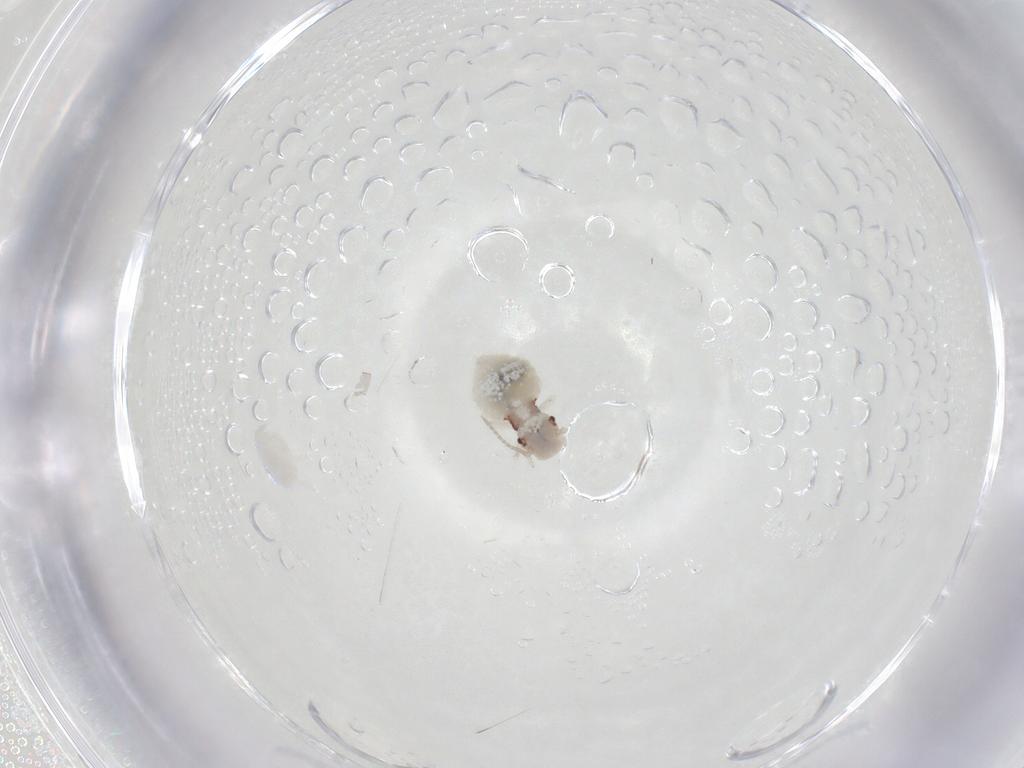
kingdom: Animalia
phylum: Arthropoda
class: Insecta
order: Psocodea
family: Amphipsocidae
